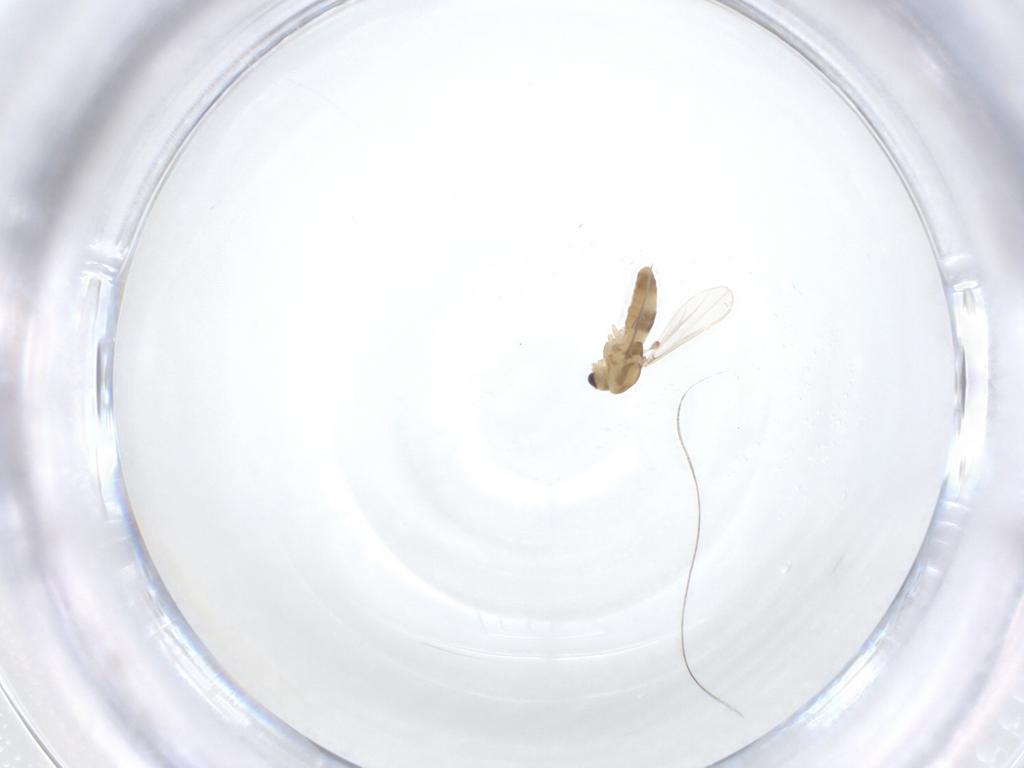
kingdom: Animalia
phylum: Arthropoda
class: Insecta
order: Diptera
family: Chironomidae
